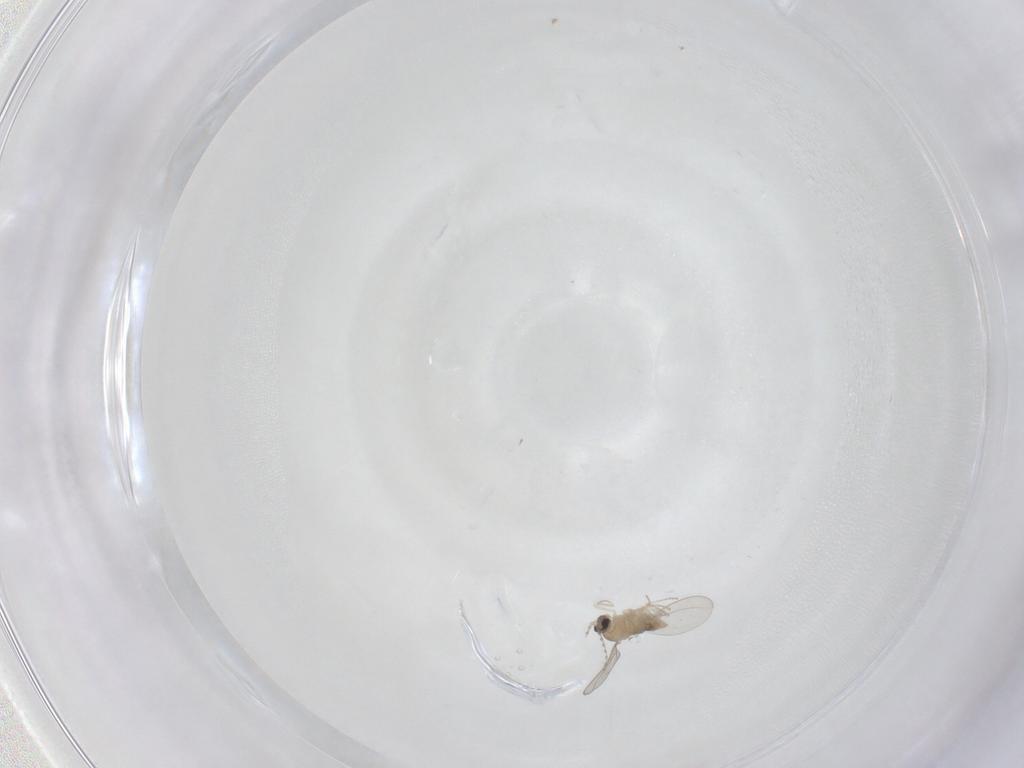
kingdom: Animalia
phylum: Arthropoda
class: Insecta
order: Diptera
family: Cecidomyiidae
